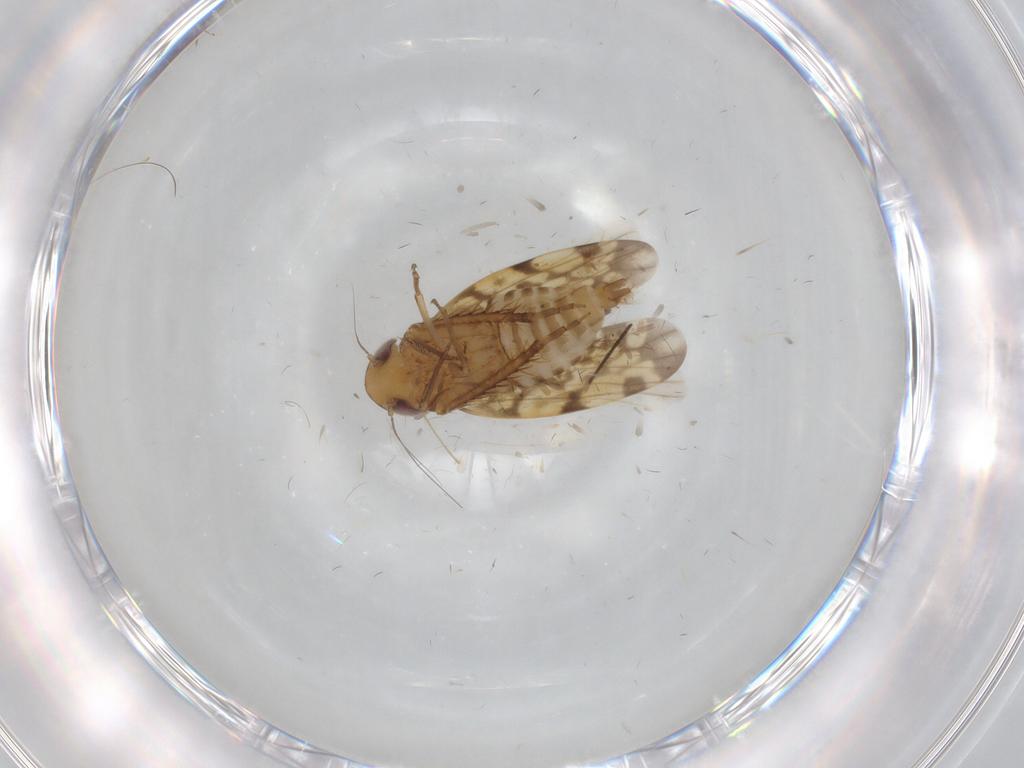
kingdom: Animalia
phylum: Arthropoda
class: Insecta
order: Hemiptera
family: Cicadellidae
